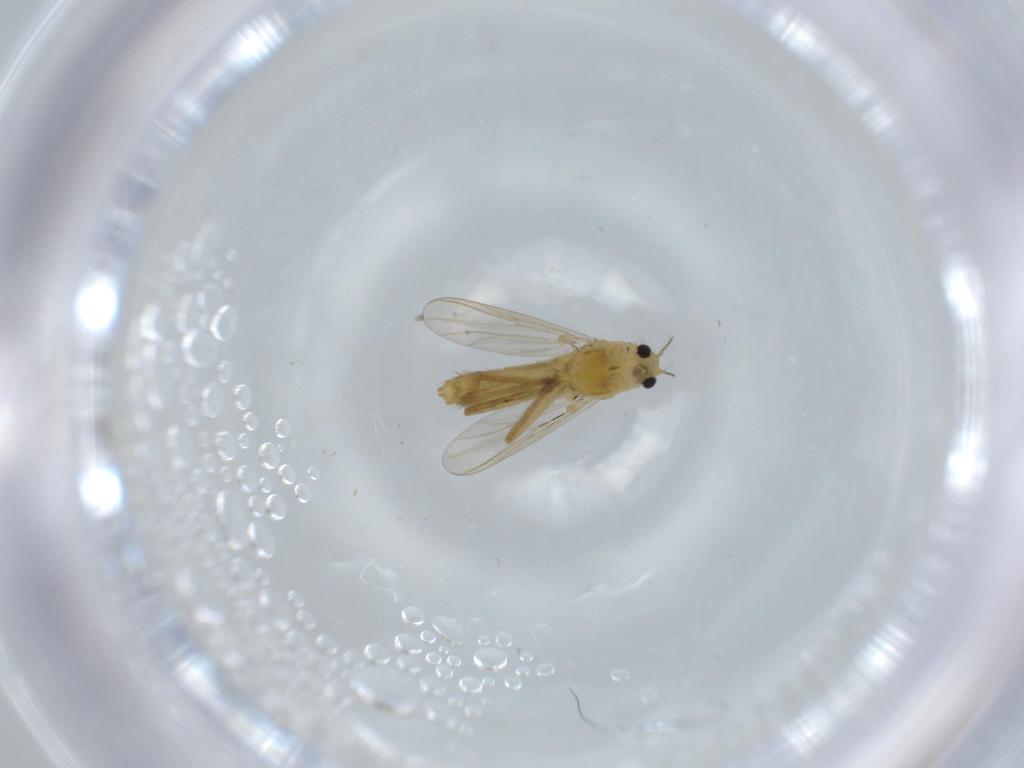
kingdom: Animalia
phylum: Arthropoda
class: Insecta
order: Diptera
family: Chironomidae
